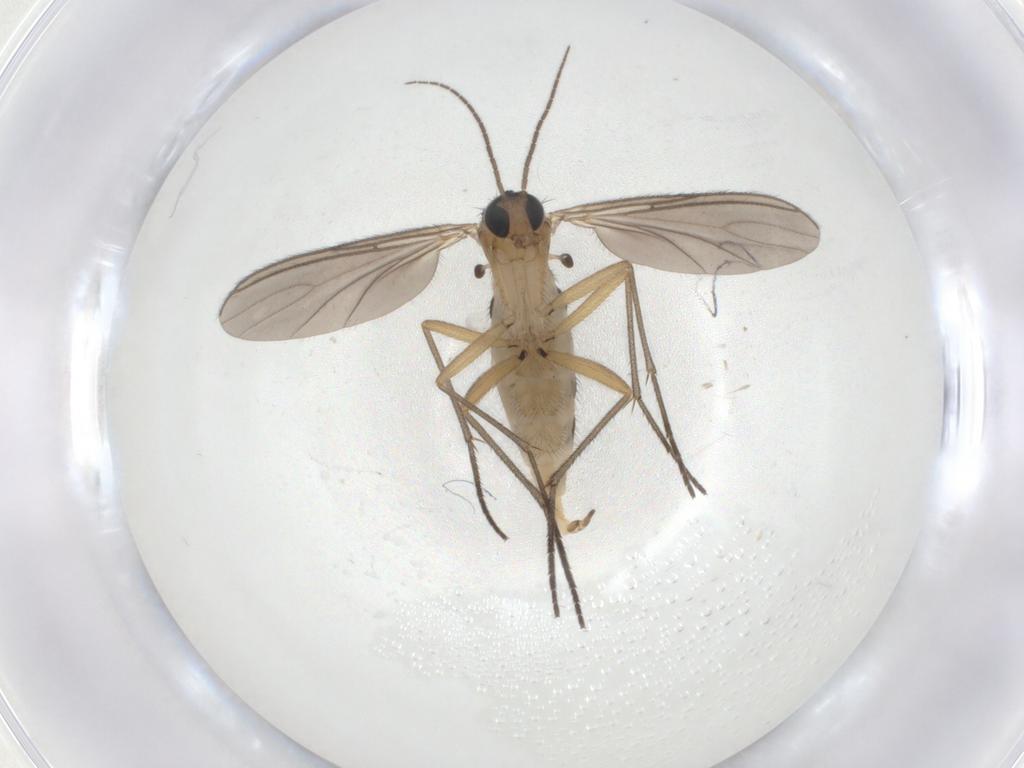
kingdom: Animalia
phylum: Arthropoda
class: Insecta
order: Diptera
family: Sciaridae
